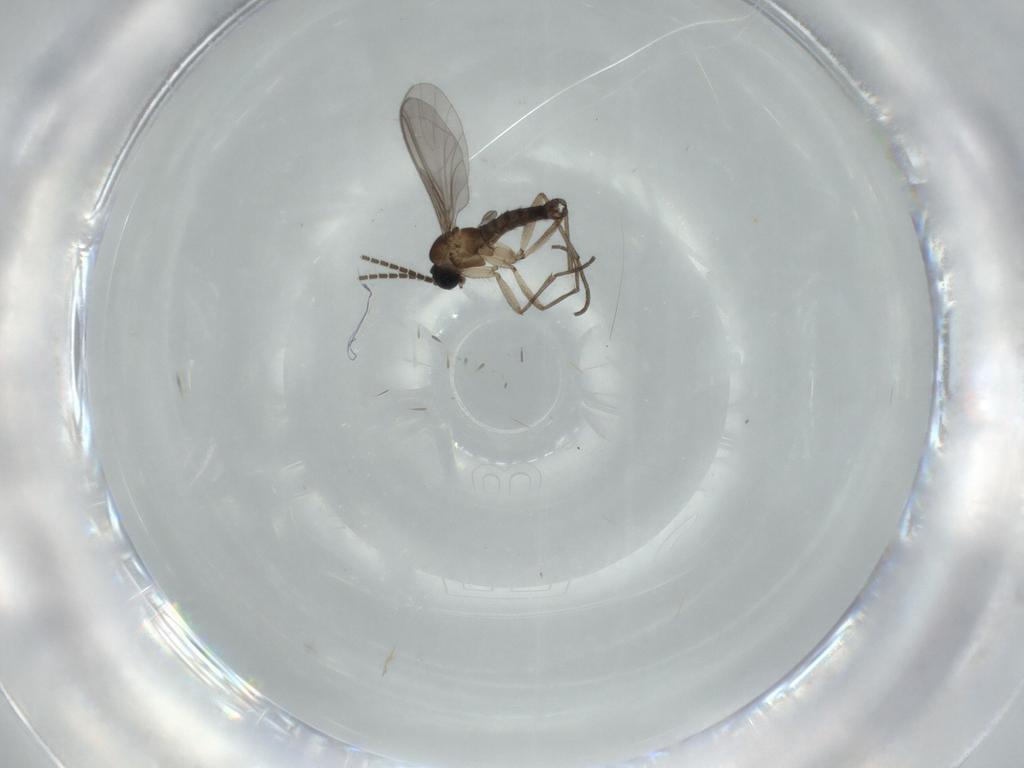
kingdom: Animalia
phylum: Arthropoda
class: Insecta
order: Diptera
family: Sciaridae
